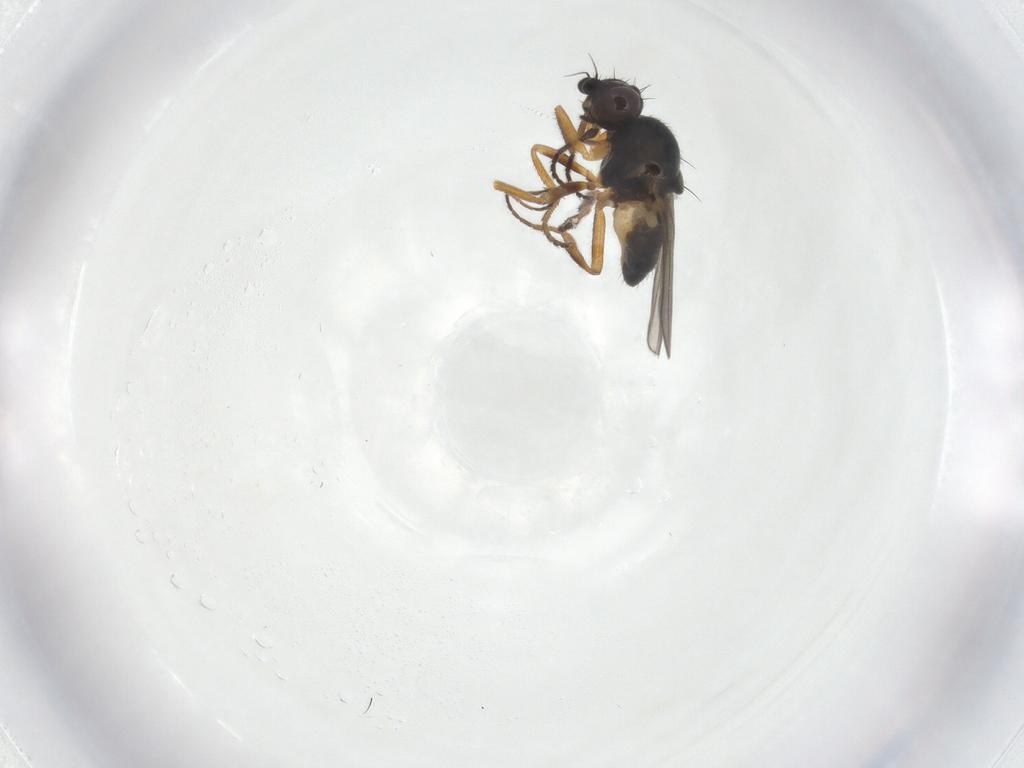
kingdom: Animalia
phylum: Arthropoda
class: Insecta
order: Diptera
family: Chloropidae
